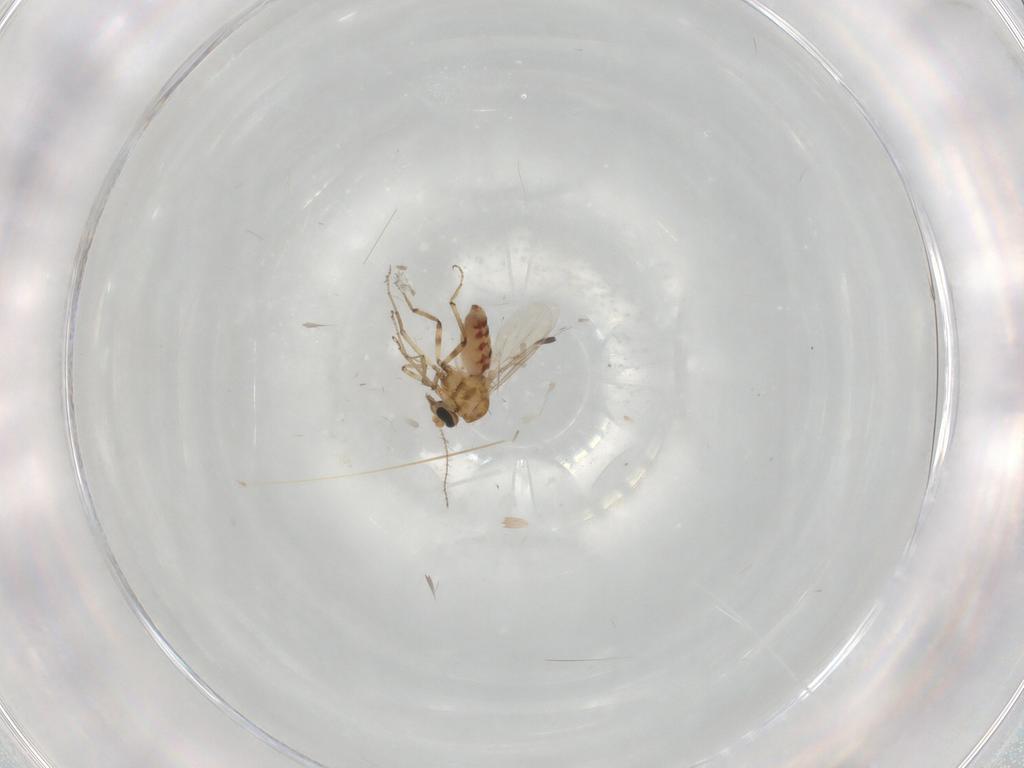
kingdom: Animalia
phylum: Arthropoda
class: Insecta
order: Diptera
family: Ceratopogonidae
